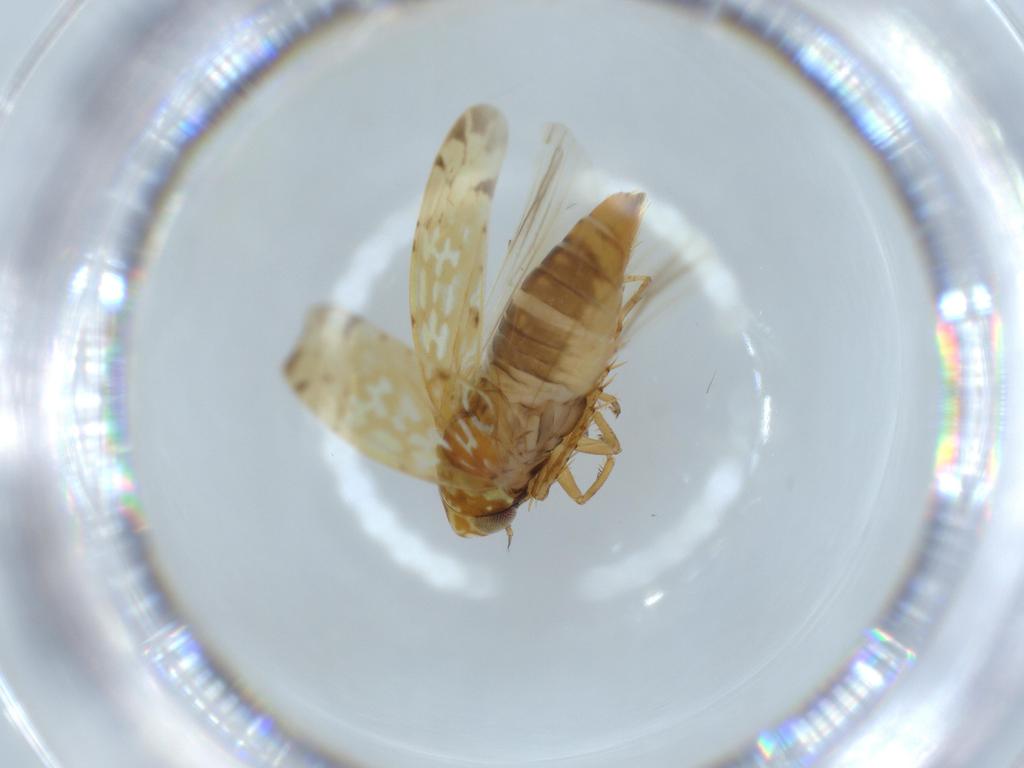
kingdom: Animalia
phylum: Arthropoda
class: Insecta
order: Hemiptera
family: Cicadellidae
